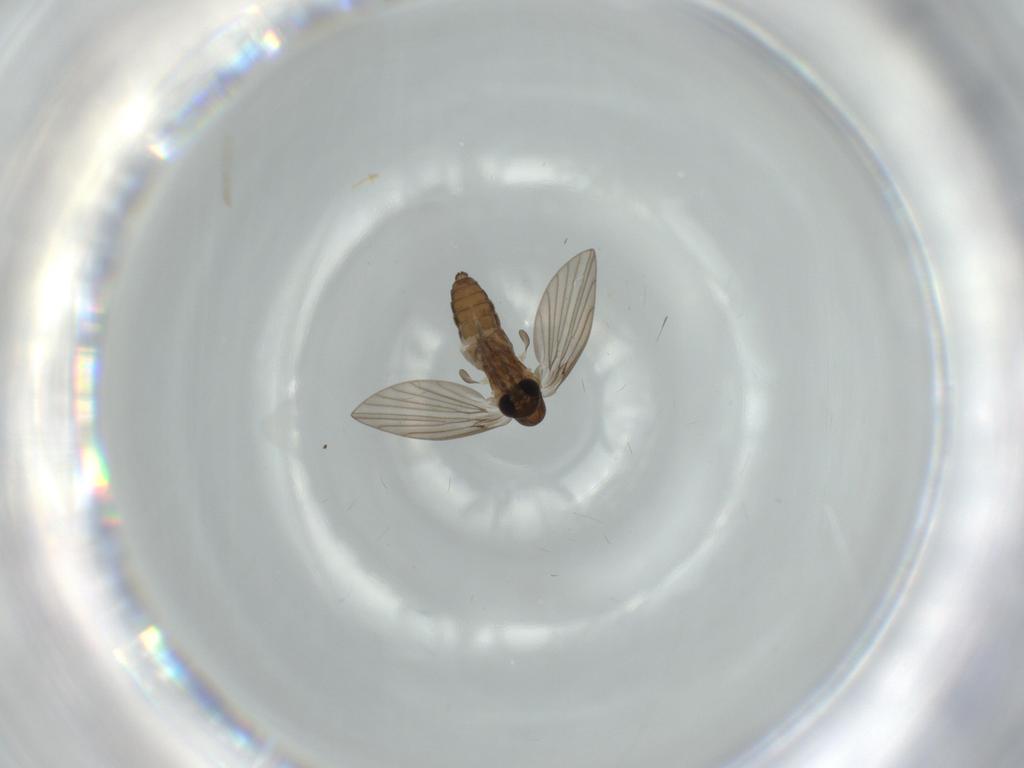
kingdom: Animalia
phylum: Arthropoda
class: Insecta
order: Diptera
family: Psychodidae
